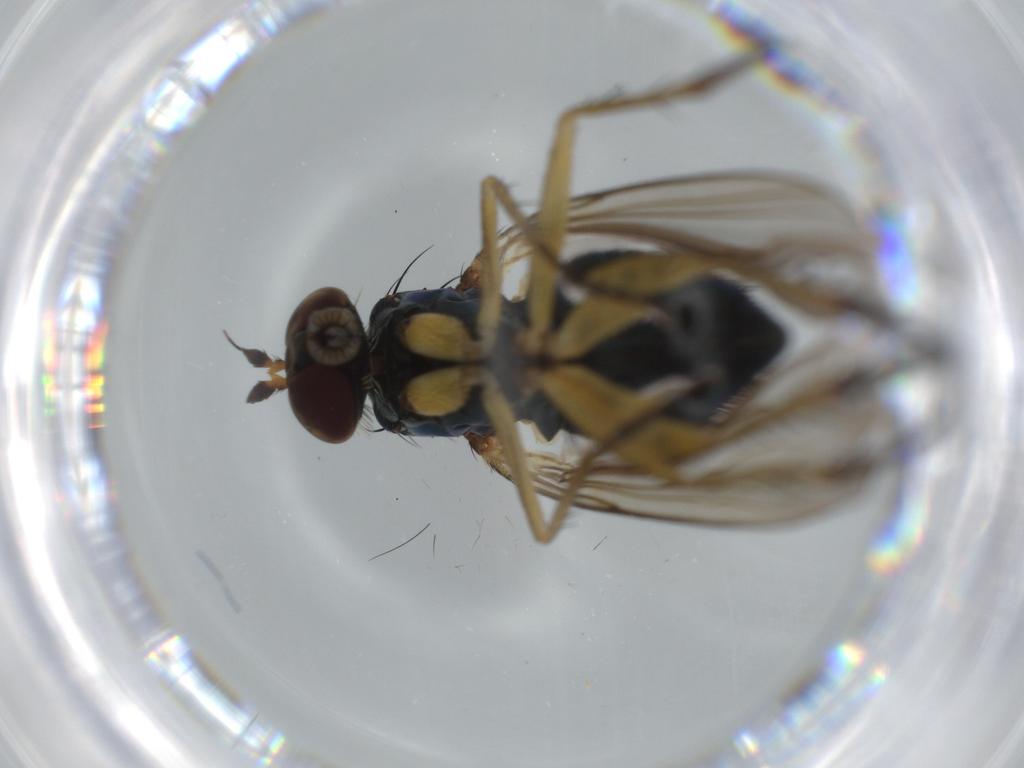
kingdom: Animalia
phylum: Arthropoda
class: Insecta
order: Diptera
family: Dolichopodidae
